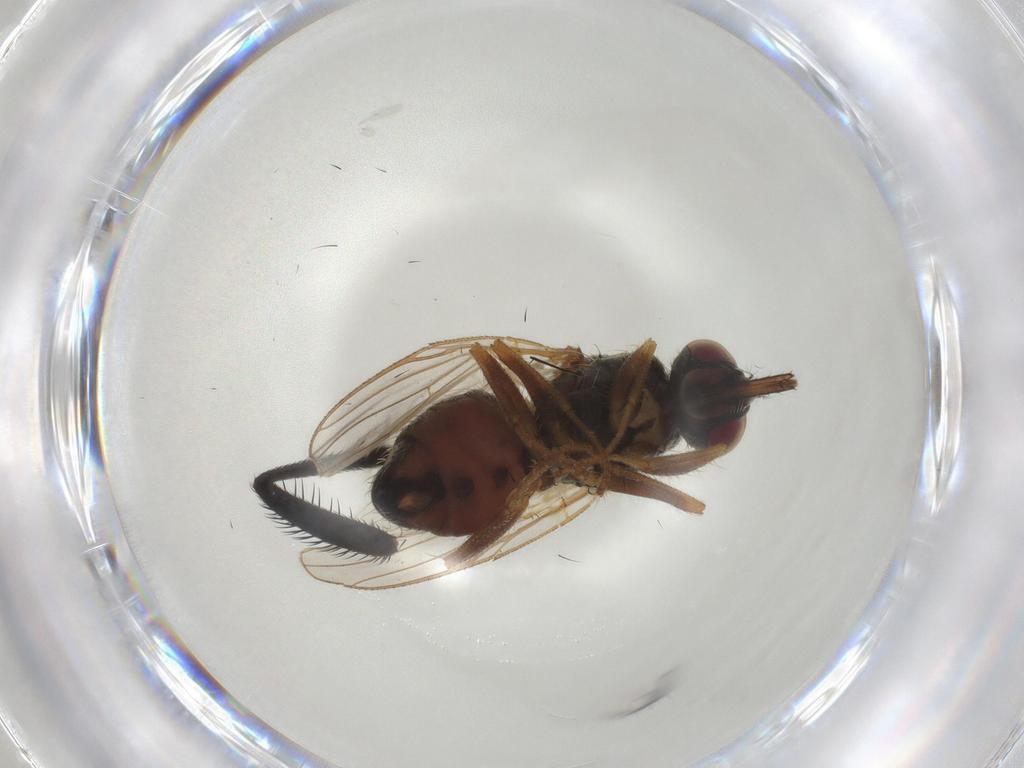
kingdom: Animalia
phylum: Arthropoda
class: Insecta
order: Diptera
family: Muscidae
